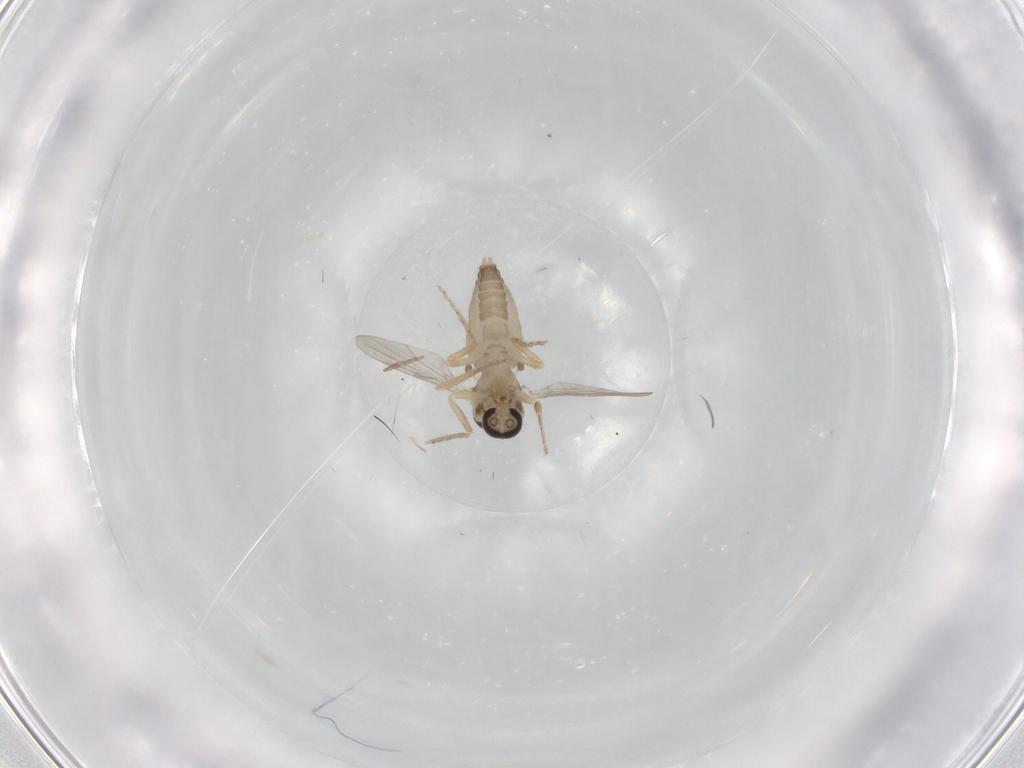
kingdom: Animalia
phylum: Arthropoda
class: Insecta
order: Diptera
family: Ceratopogonidae
